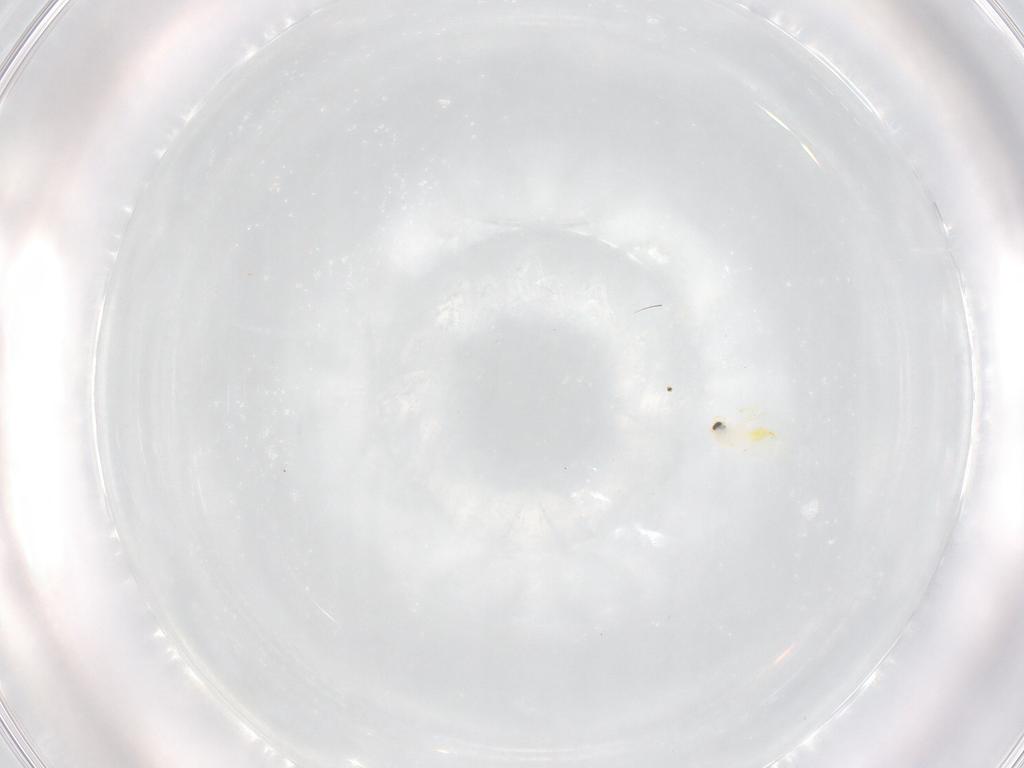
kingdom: Animalia
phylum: Arthropoda
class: Insecta
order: Hemiptera
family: Aleyrodidae
